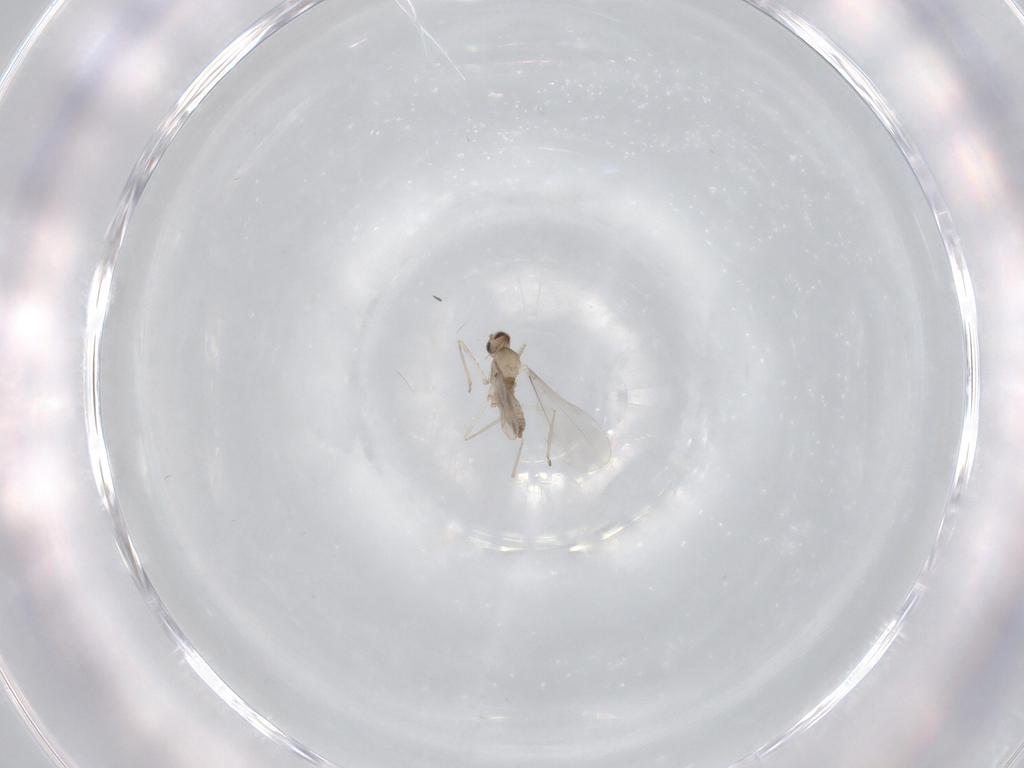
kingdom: Animalia
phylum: Arthropoda
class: Insecta
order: Diptera
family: Cecidomyiidae
